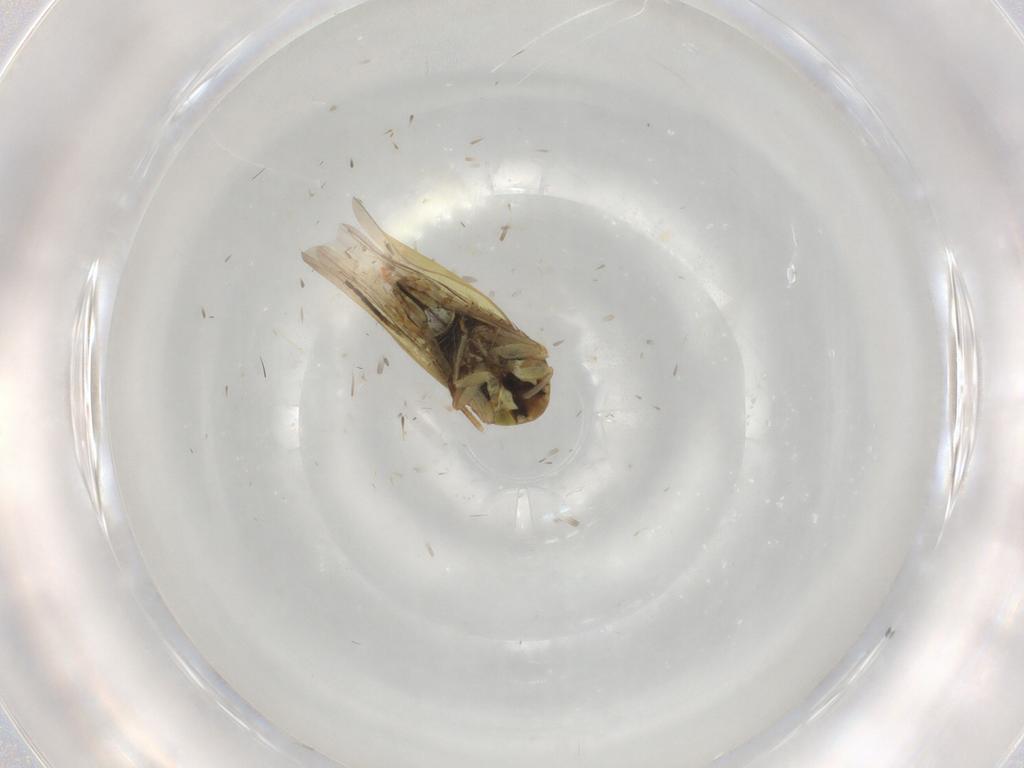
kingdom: Animalia
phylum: Arthropoda
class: Insecta
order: Hemiptera
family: Cicadellidae
